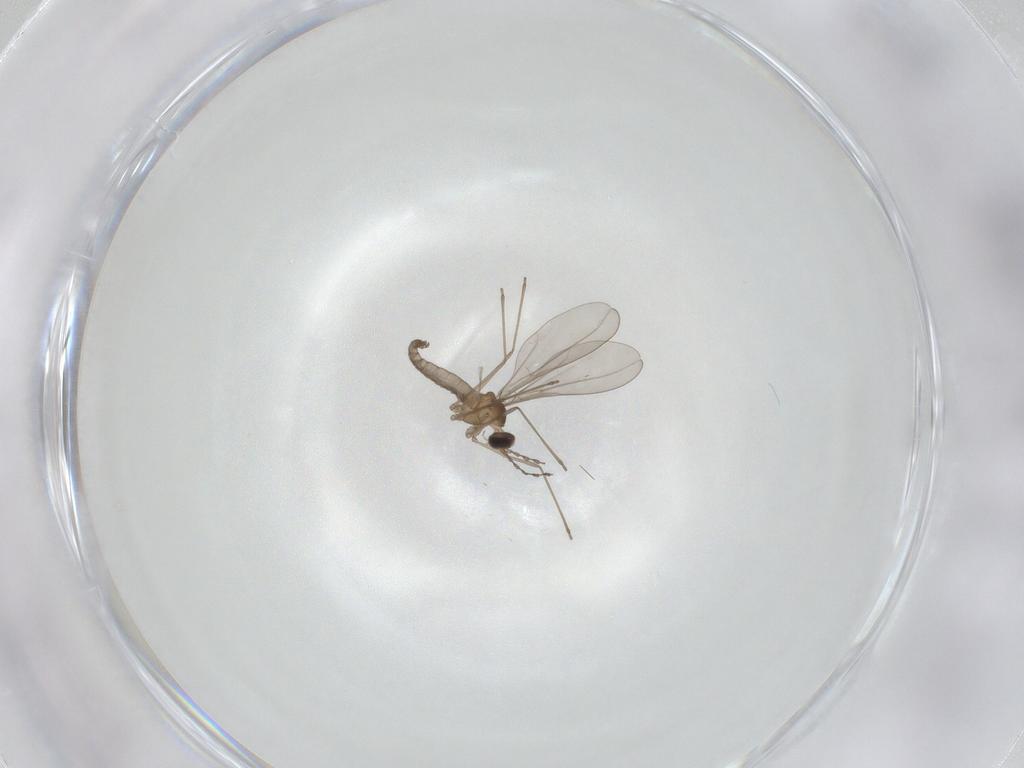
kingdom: Animalia
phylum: Arthropoda
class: Insecta
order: Diptera
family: Cecidomyiidae
